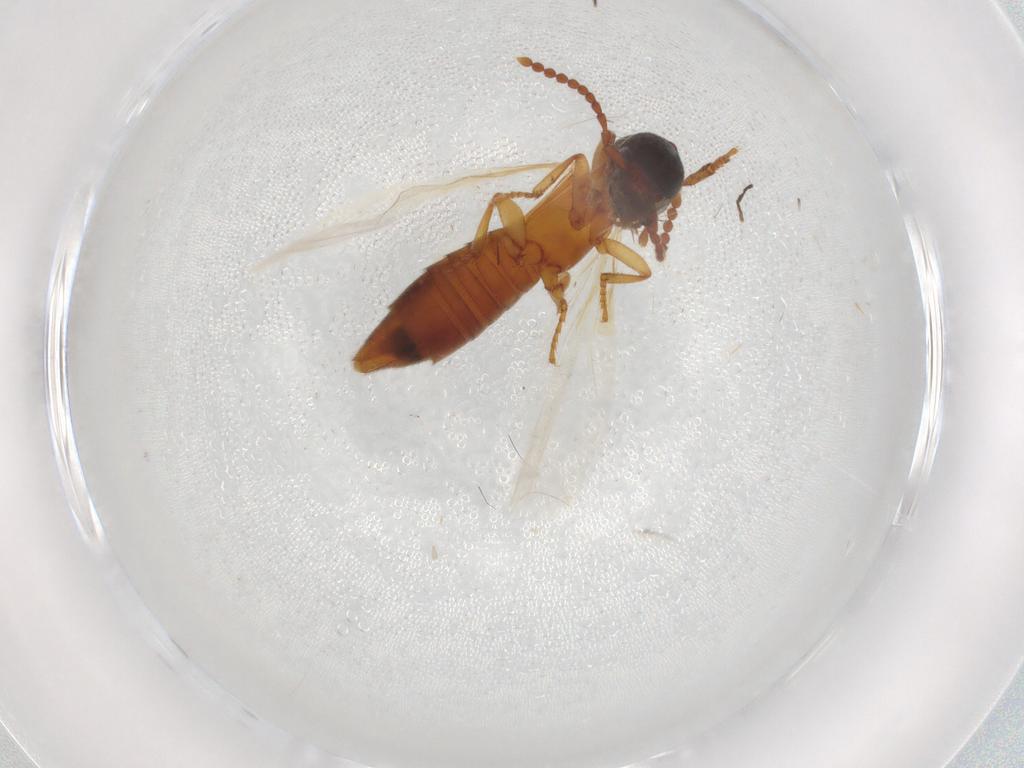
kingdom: Animalia
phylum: Arthropoda
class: Insecta
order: Coleoptera
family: Staphylinidae
